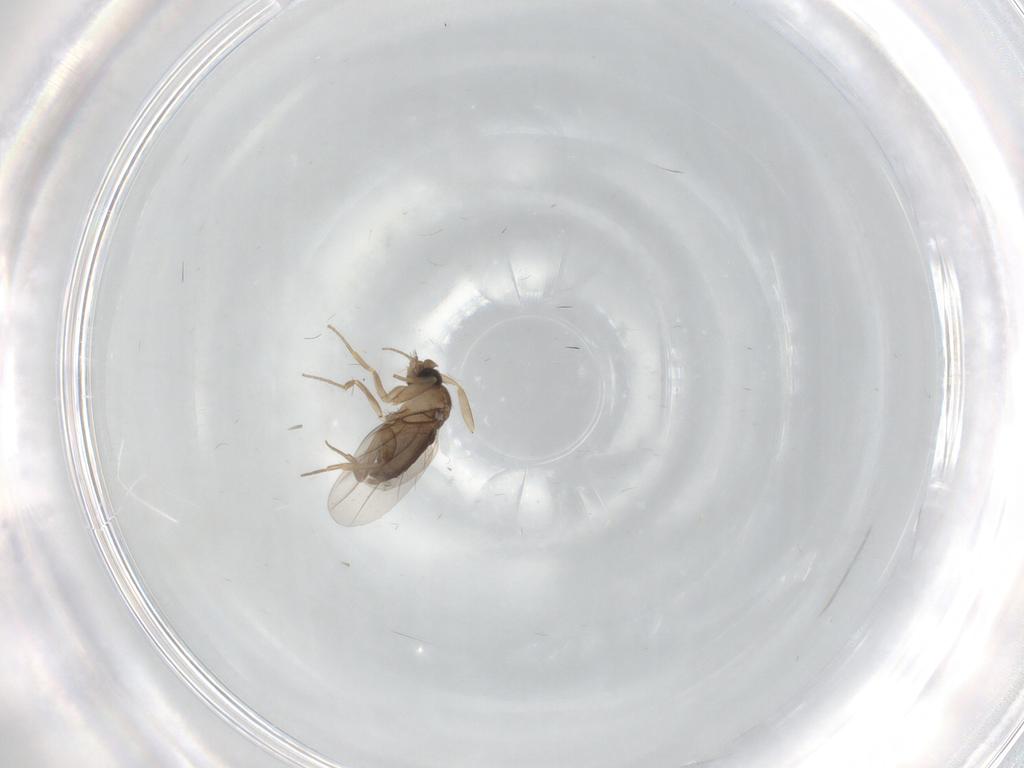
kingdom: Animalia
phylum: Arthropoda
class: Insecta
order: Diptera
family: Phoridae
